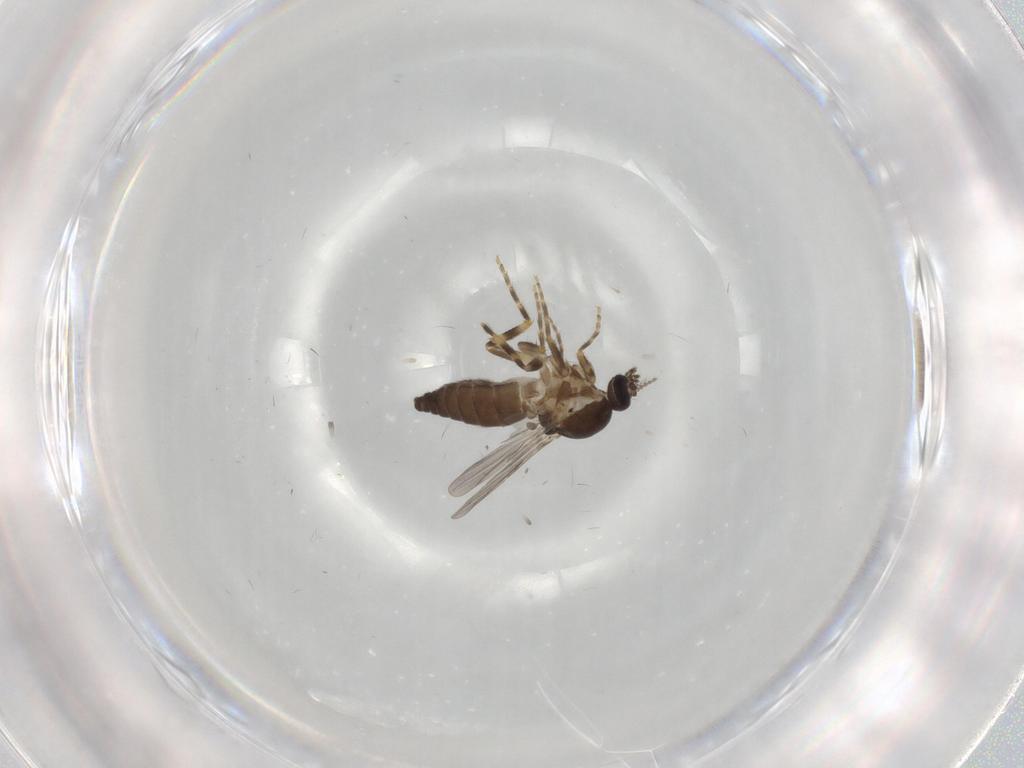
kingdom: Animalia
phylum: Arthropoda
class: Insecta
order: Diptera
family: Ceratopogonidae
